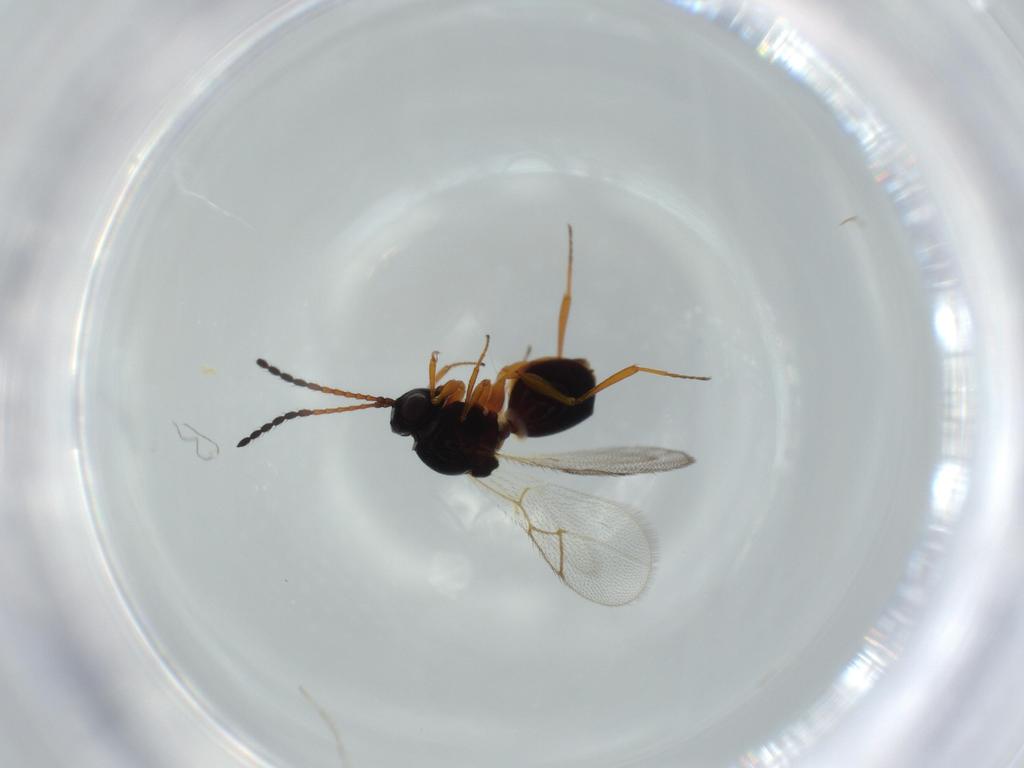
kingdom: Animalia
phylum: Arthropoda
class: Insecta
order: Hymenoptera
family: Figitidae
